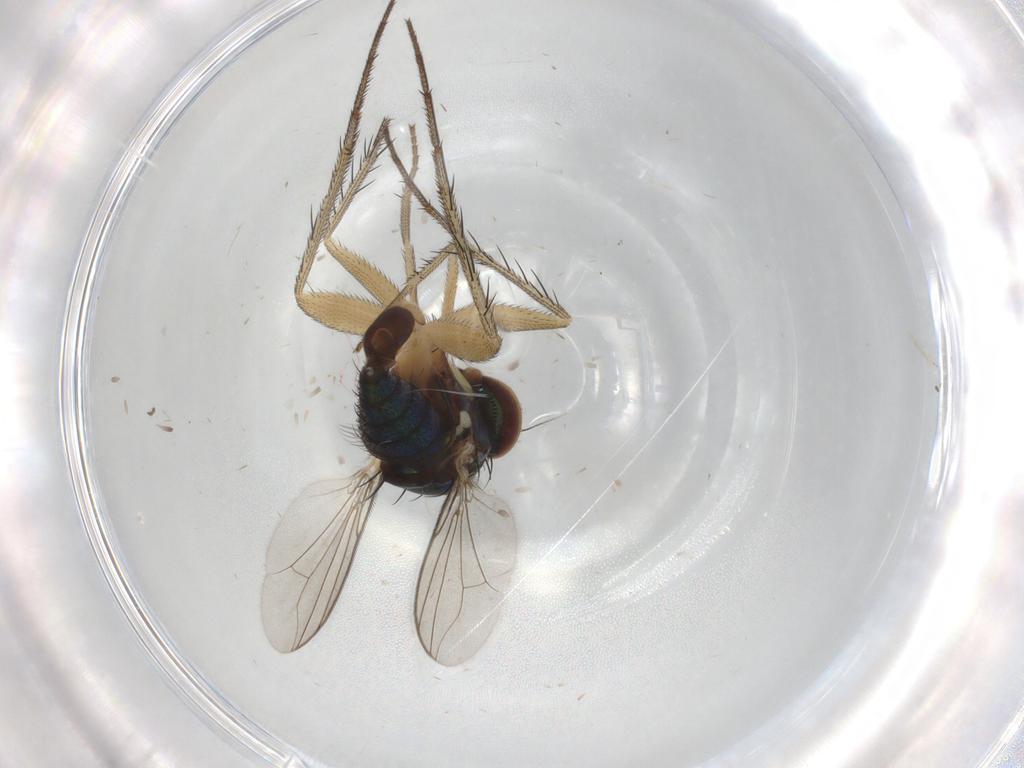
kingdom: Animalia
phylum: Arthropoda
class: Insecta
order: Diptera
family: Dolichopodidae
